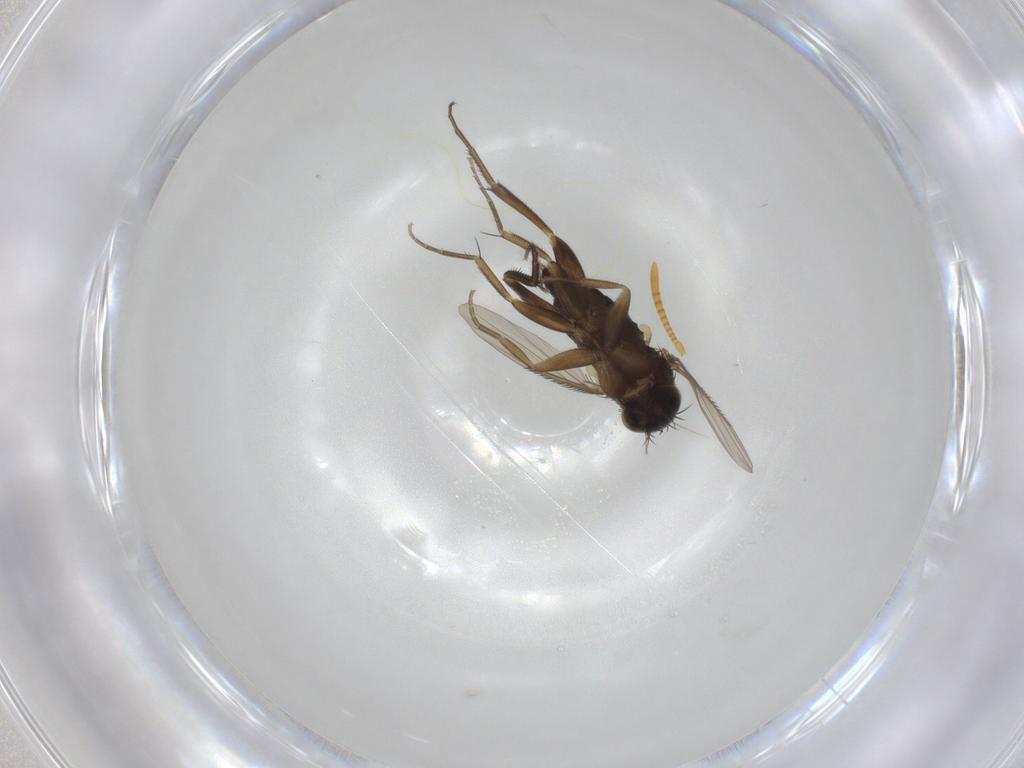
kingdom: Animalia
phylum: Arthropoda
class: Insecta
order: Diptera
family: Phoridae
